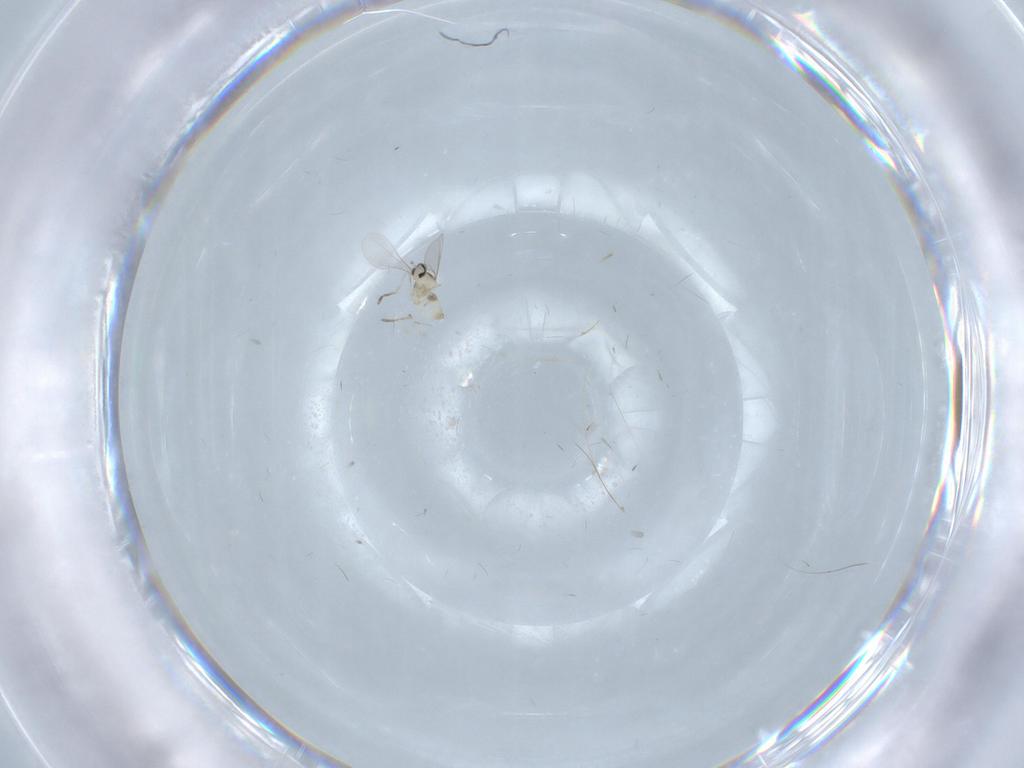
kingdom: Animalia
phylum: Arthropoda
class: Insecta
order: Diptera
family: Cecidomyiidae
